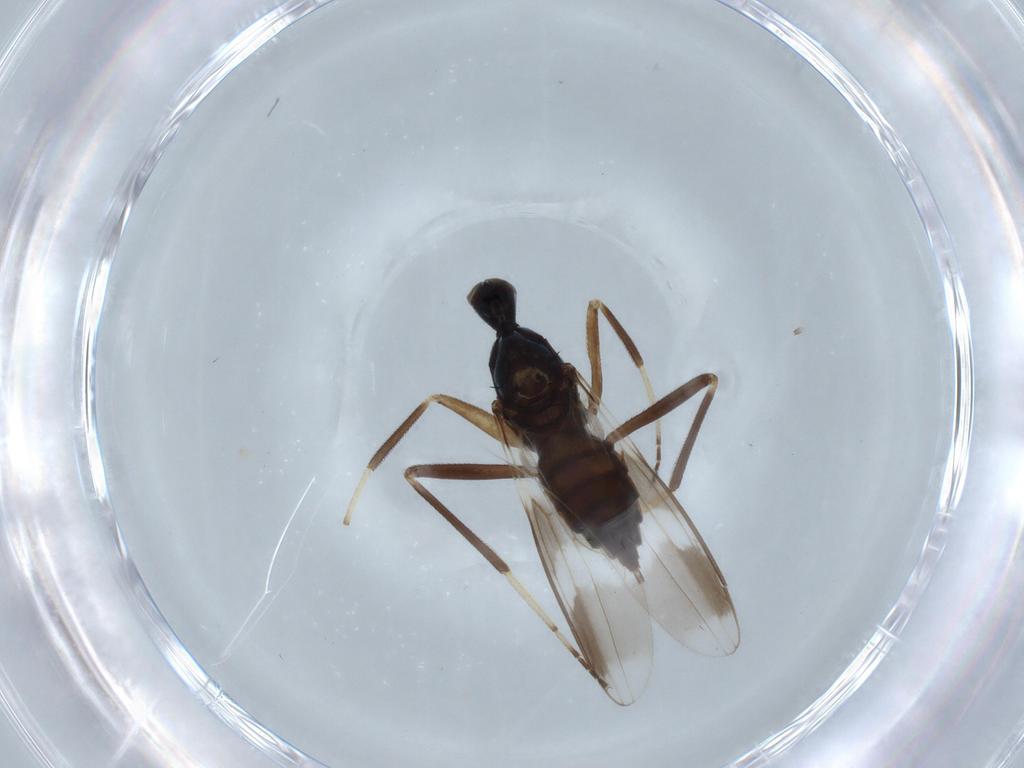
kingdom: Animalia
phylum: Arthropoda
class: Insecta
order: Diptera
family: Hybotidae
